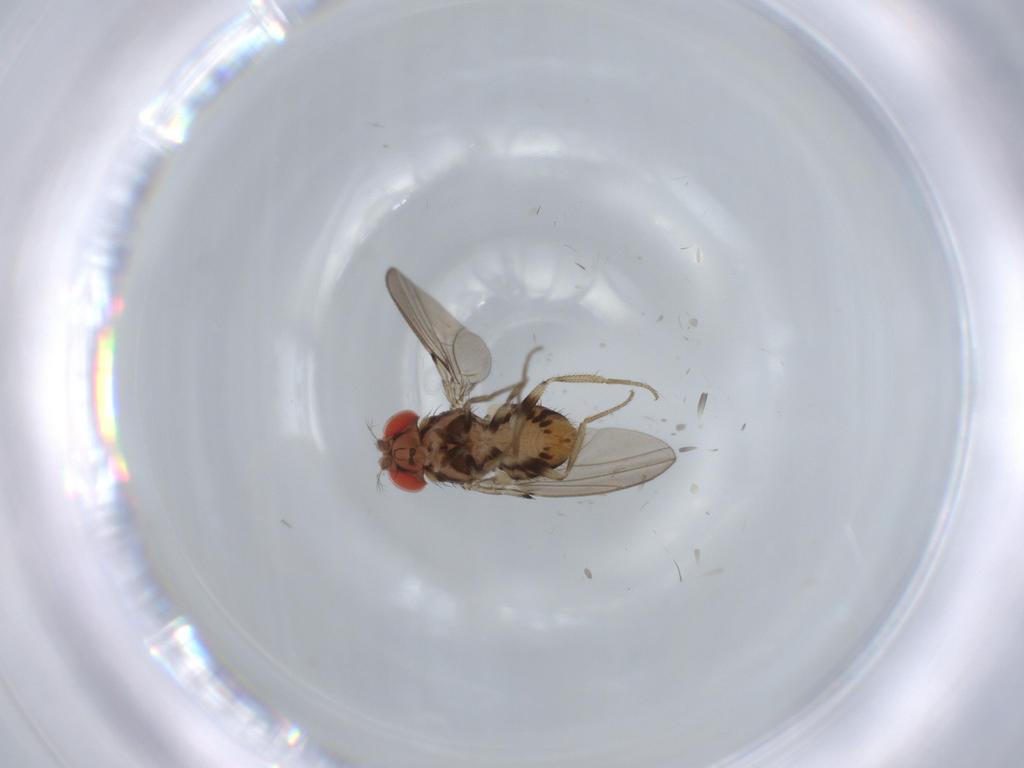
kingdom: Animalia
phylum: Arthropoda
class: Insecta
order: Diptera
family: Drosophilidae
